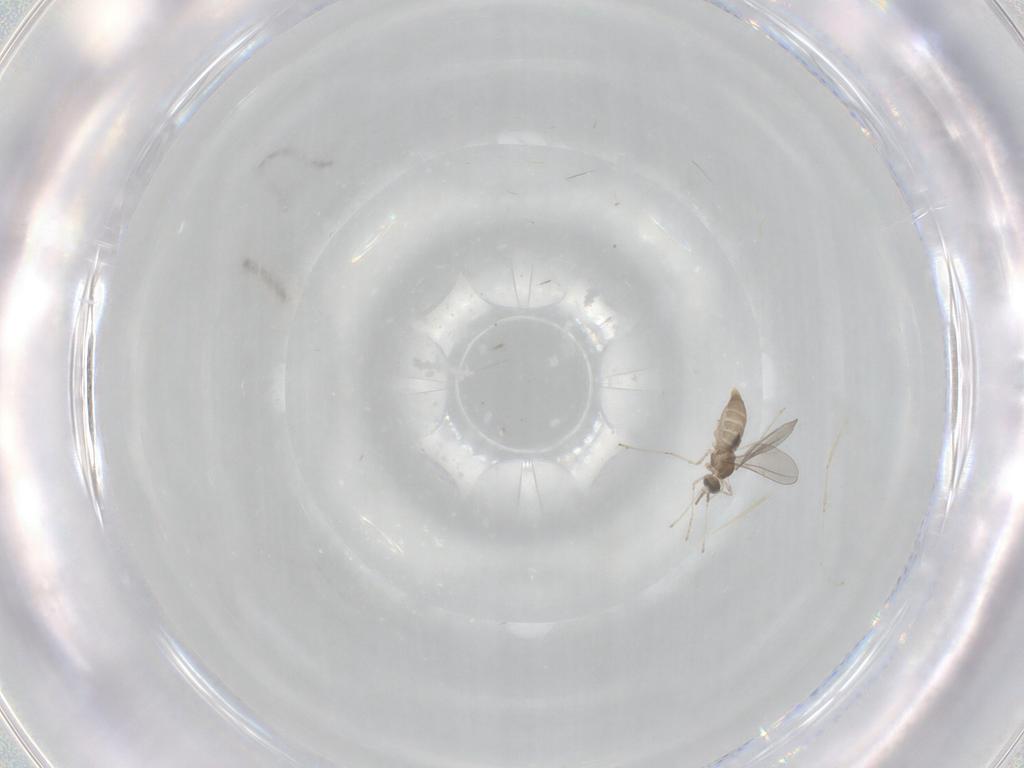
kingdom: Animalia
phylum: Arthropoda
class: Insecta
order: Diptera
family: Cecidomyiidae
